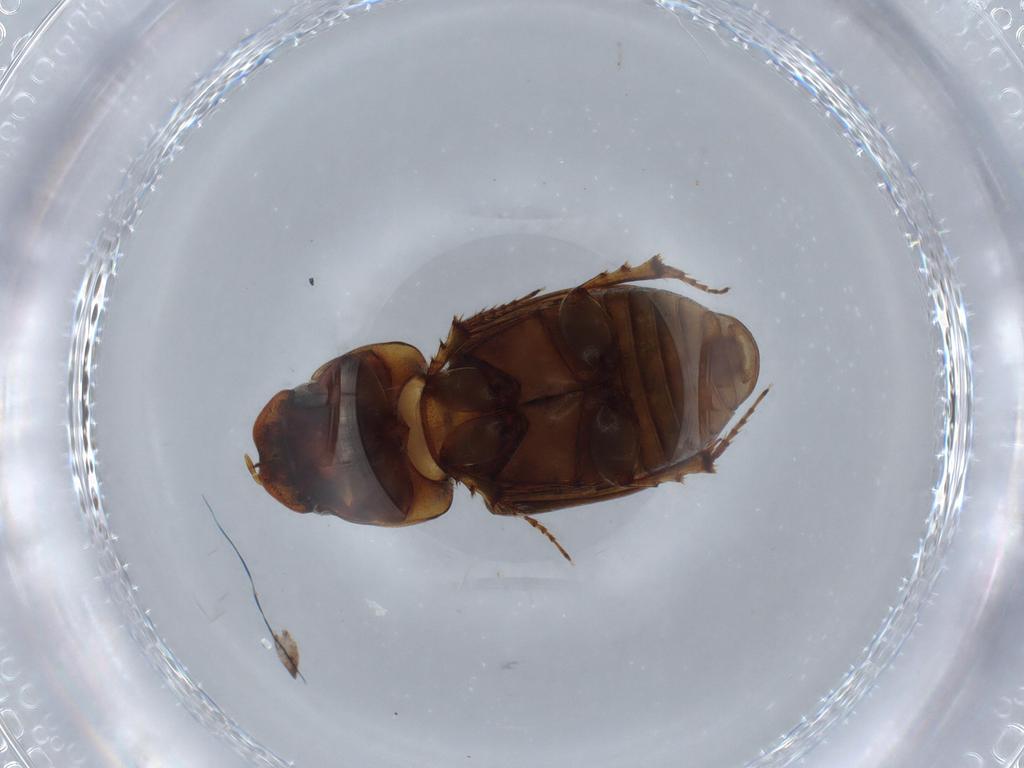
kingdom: Animalia
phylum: Arthropoda
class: Insecta
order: Coleoptera
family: Latridiidae
